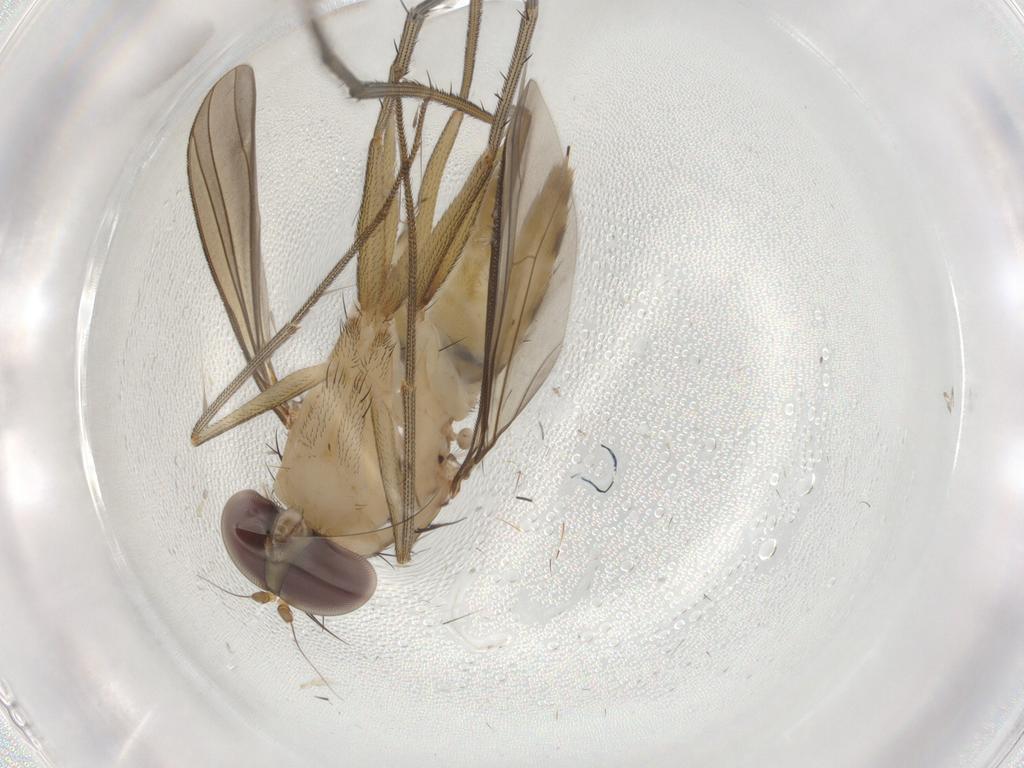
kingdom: Animalia
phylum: Arthropoda
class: Insecta
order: Diptera
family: Dolichopodidae
